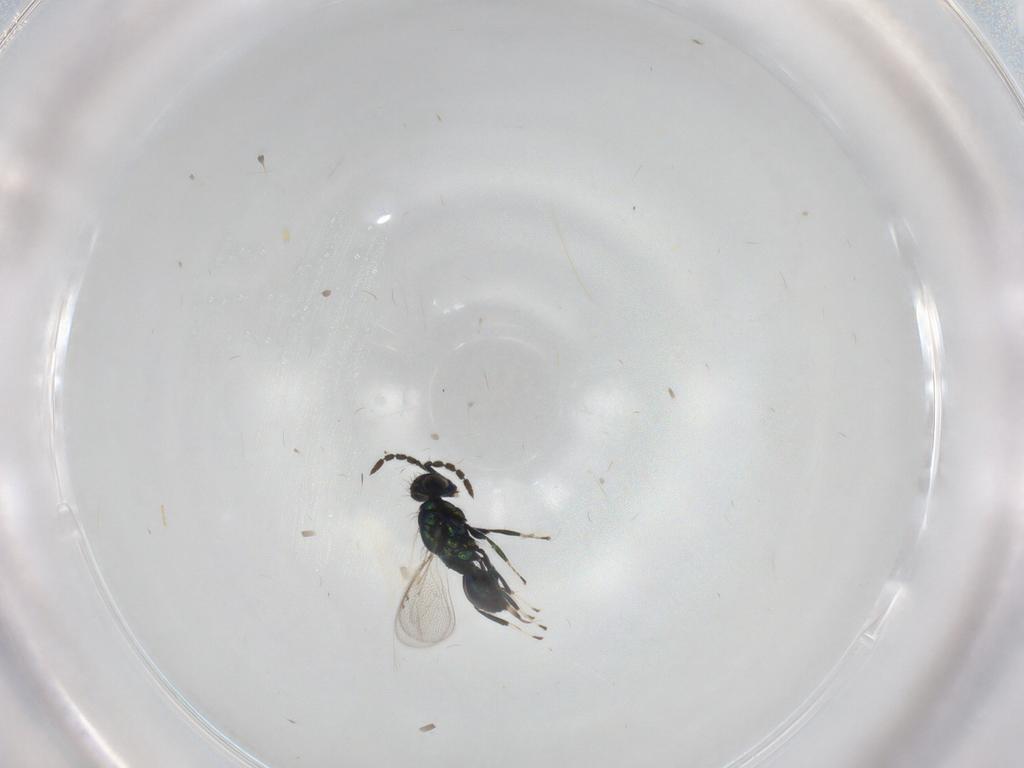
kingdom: Animalia
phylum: Arthropoda
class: Insecta
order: Hymenoptera
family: Eulophidae
